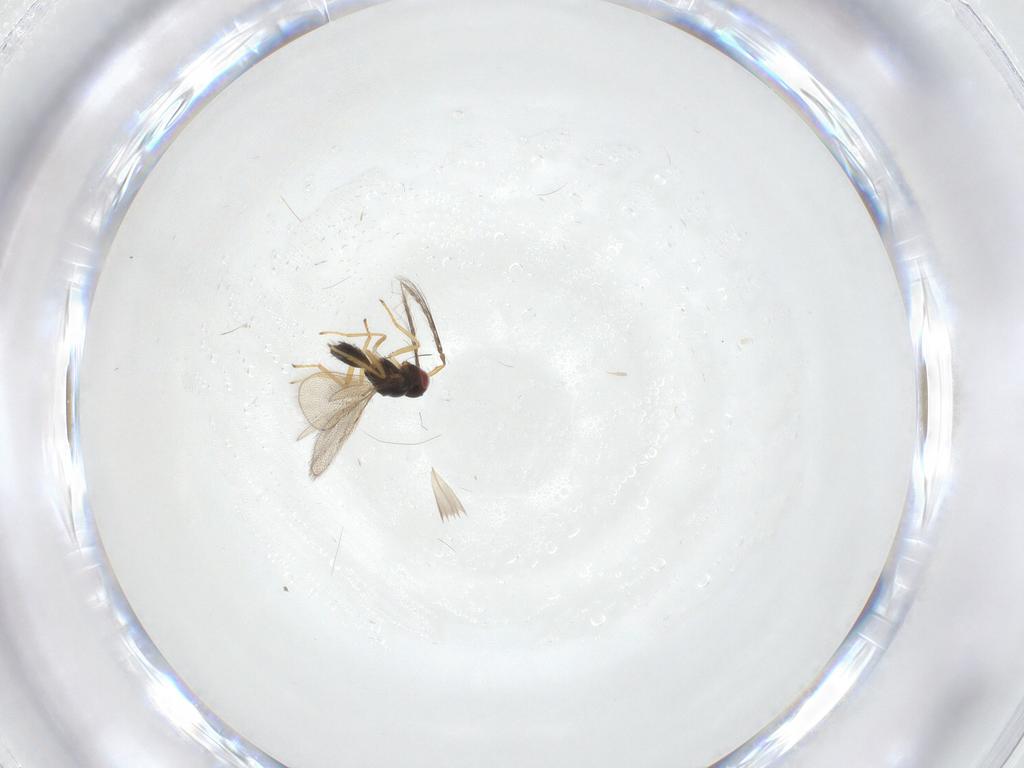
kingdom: Animalia
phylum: Arthropoda
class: Insecta
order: Hymenoptera
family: Eulophidae
